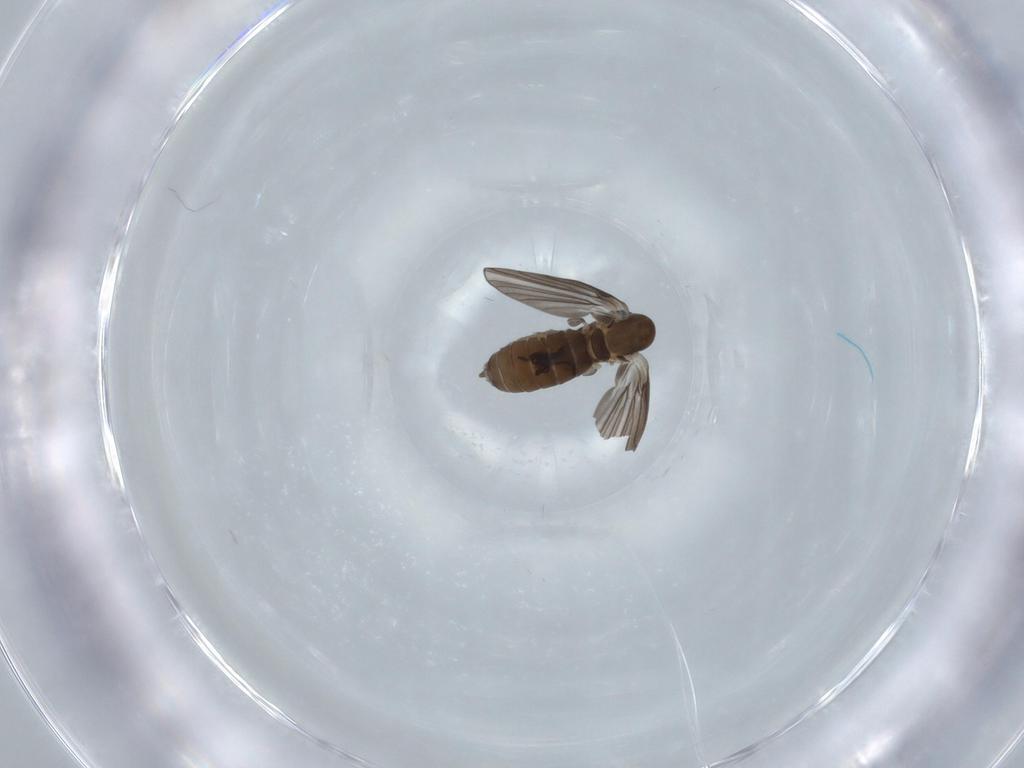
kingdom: Animalia
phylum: Arthropoda
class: Insecta
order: Diptera
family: Psychodidae
